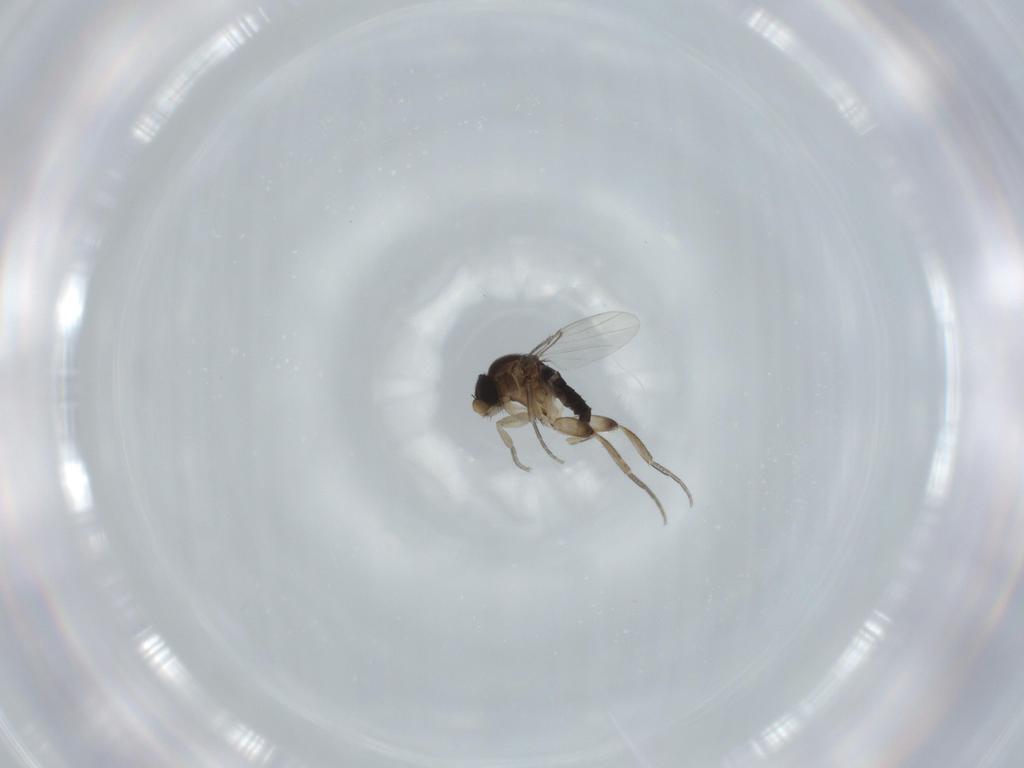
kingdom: Animalia
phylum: Arthropoda
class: Insecta
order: Diptera
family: Phoridae
